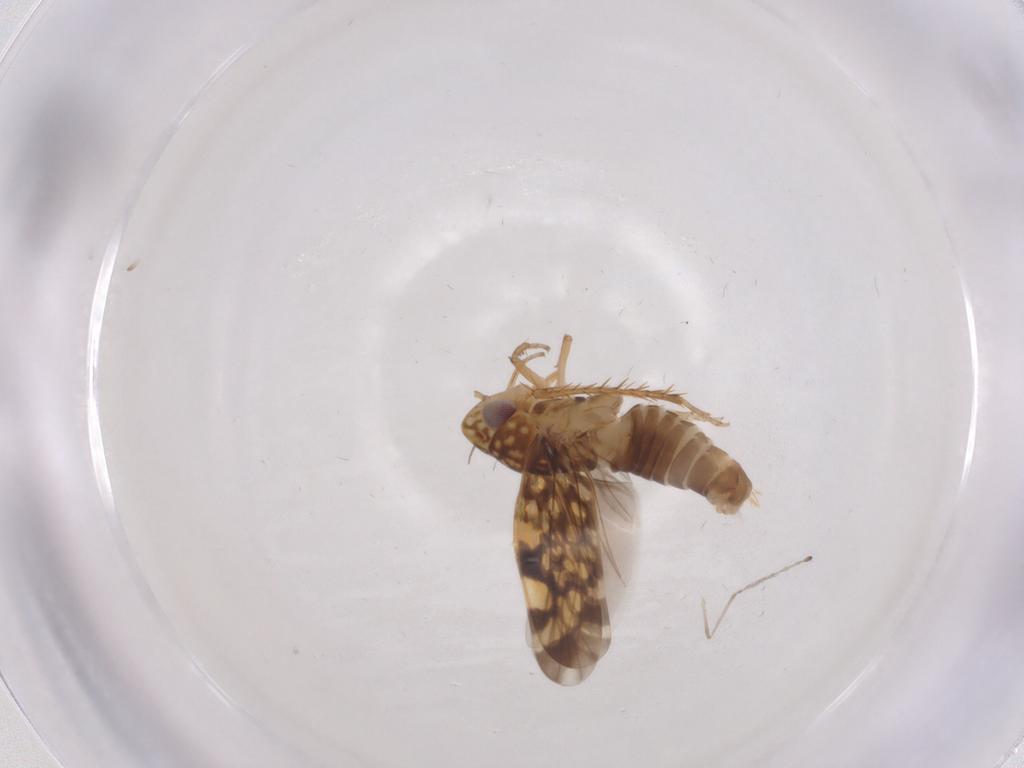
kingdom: Animalia
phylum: Arthropoda
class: Insecta
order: Hemiptera
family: Cicadellidae
